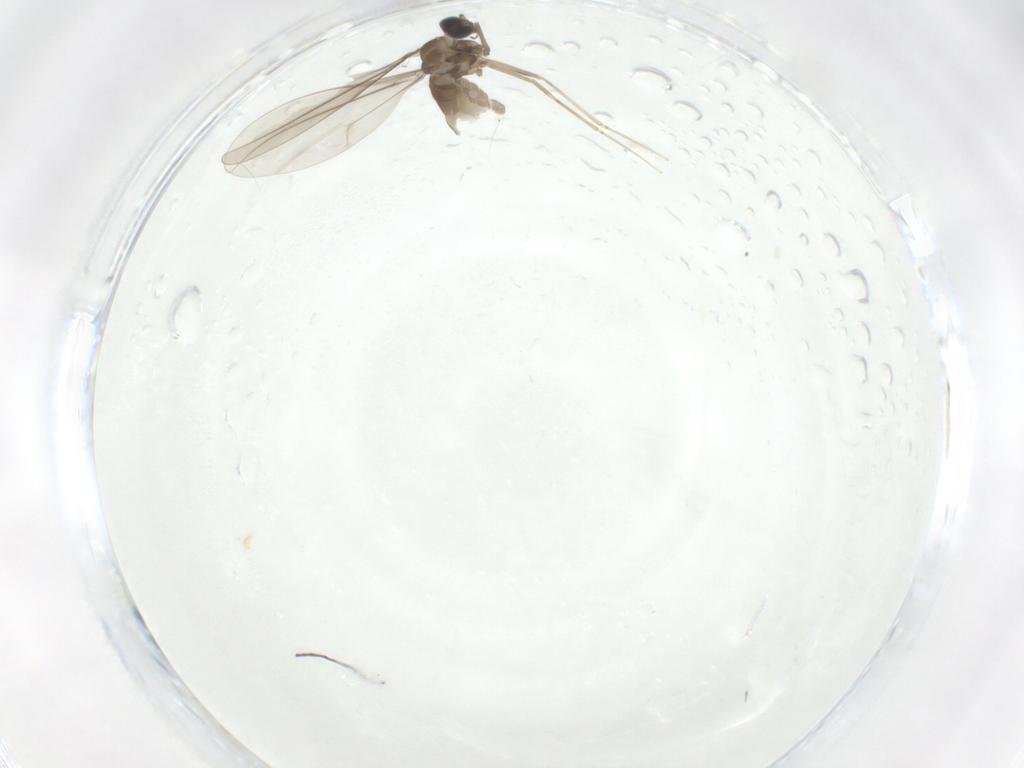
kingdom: Animalia
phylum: Arthropoda
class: Insecta
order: Diptera
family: Cecidomyiidae
